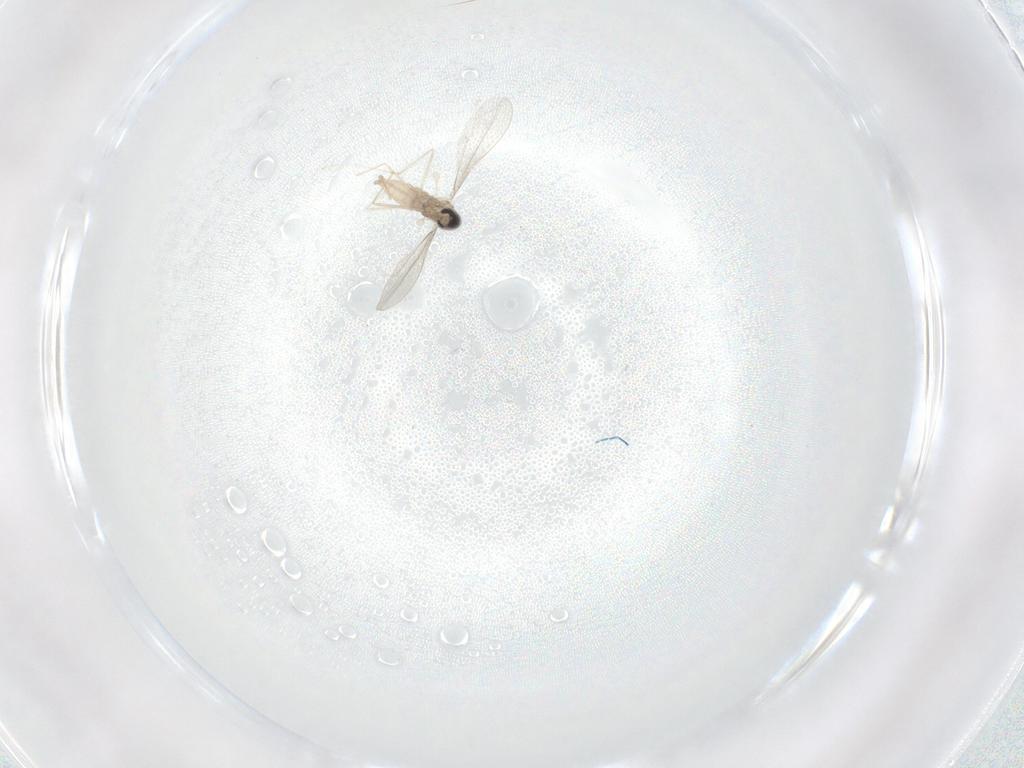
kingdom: Animalia
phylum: Arthropoda
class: Insecta
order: Diptera
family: Cecidomyiidae
